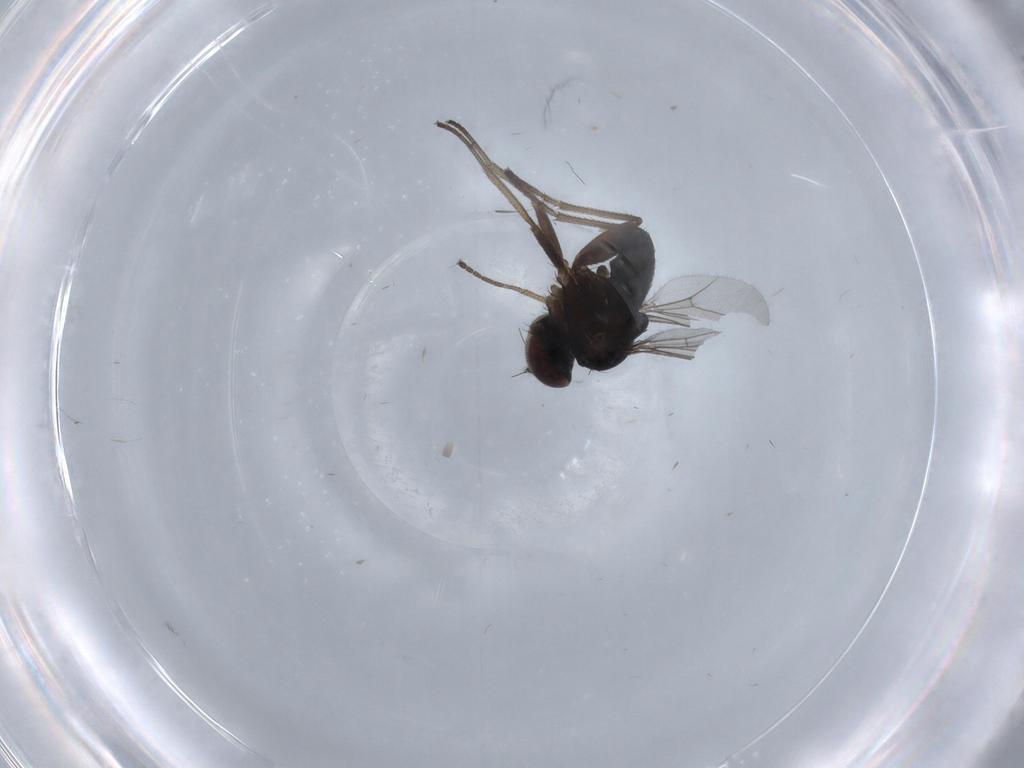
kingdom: Animalia
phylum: Arthropoda
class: Insecta
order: Diptera
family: Dolichopodidae
